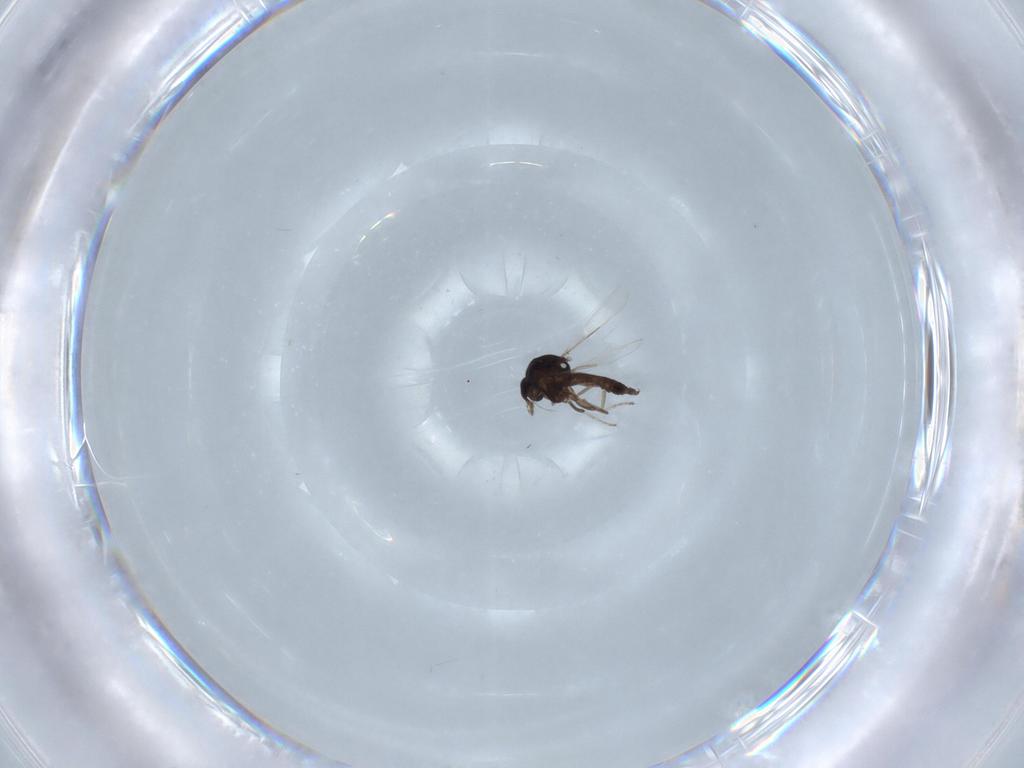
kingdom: Animalia
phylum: Arthropoda
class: Insecta
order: Diptera
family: Ceratopogonidae
